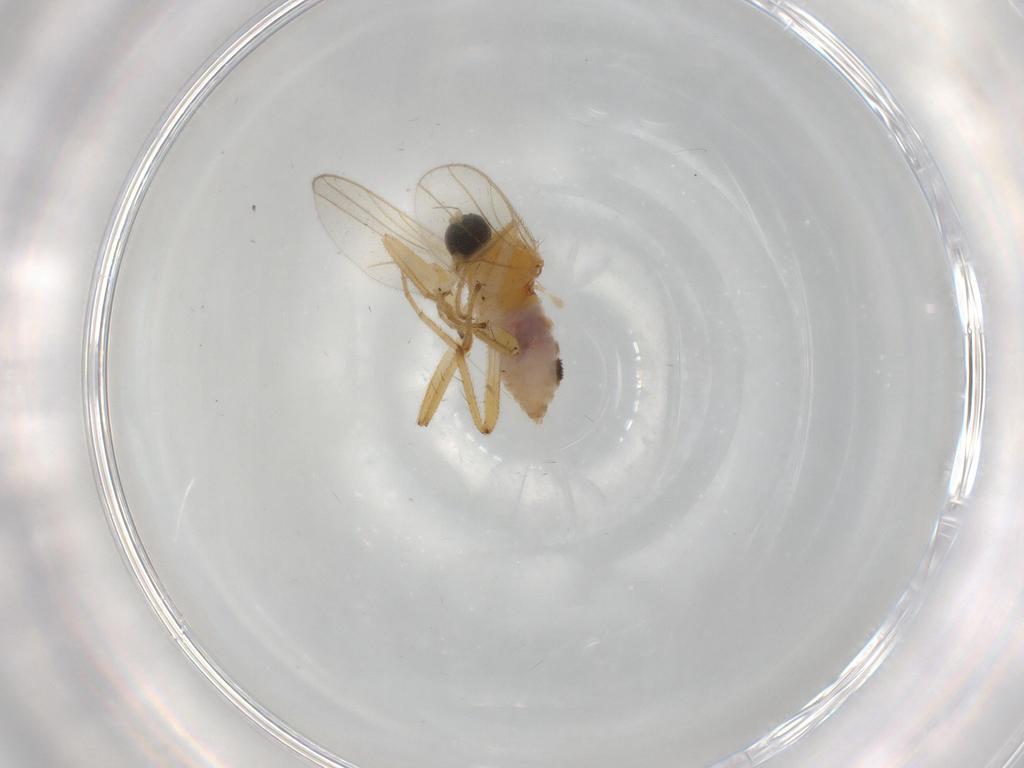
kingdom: Animalia
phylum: Arthropoda
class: Insecta
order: Diptera
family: Hybotidae
